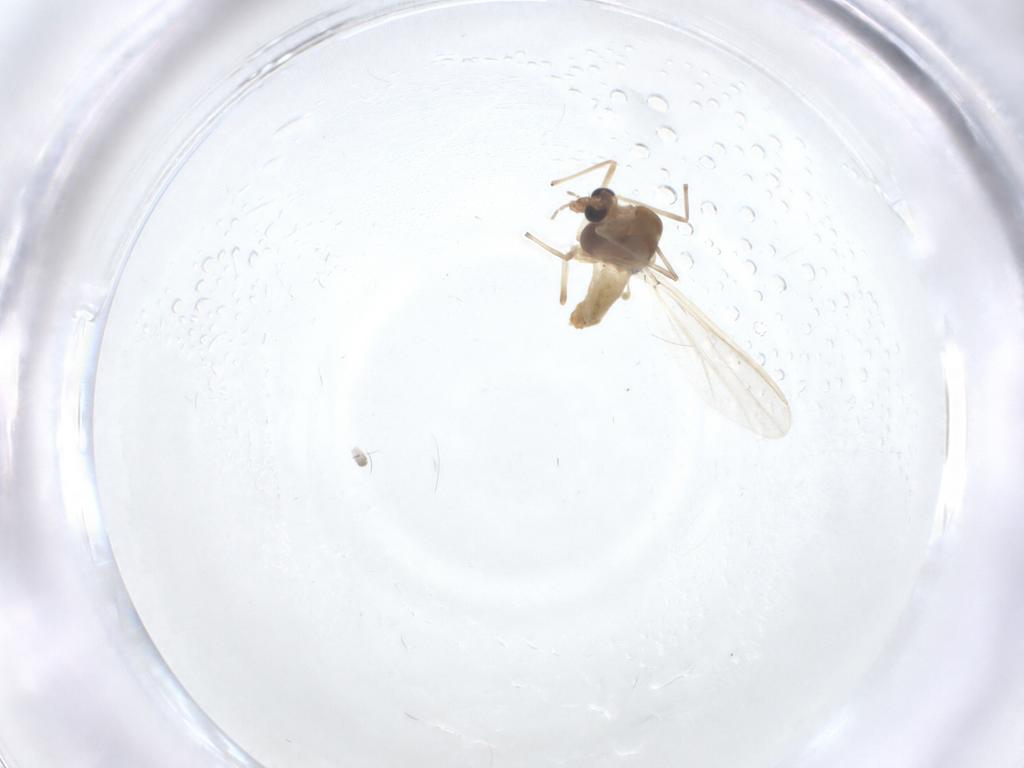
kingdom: Animalia
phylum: Arthropoda
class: Insecta
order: Diptera
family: Chironomidae
